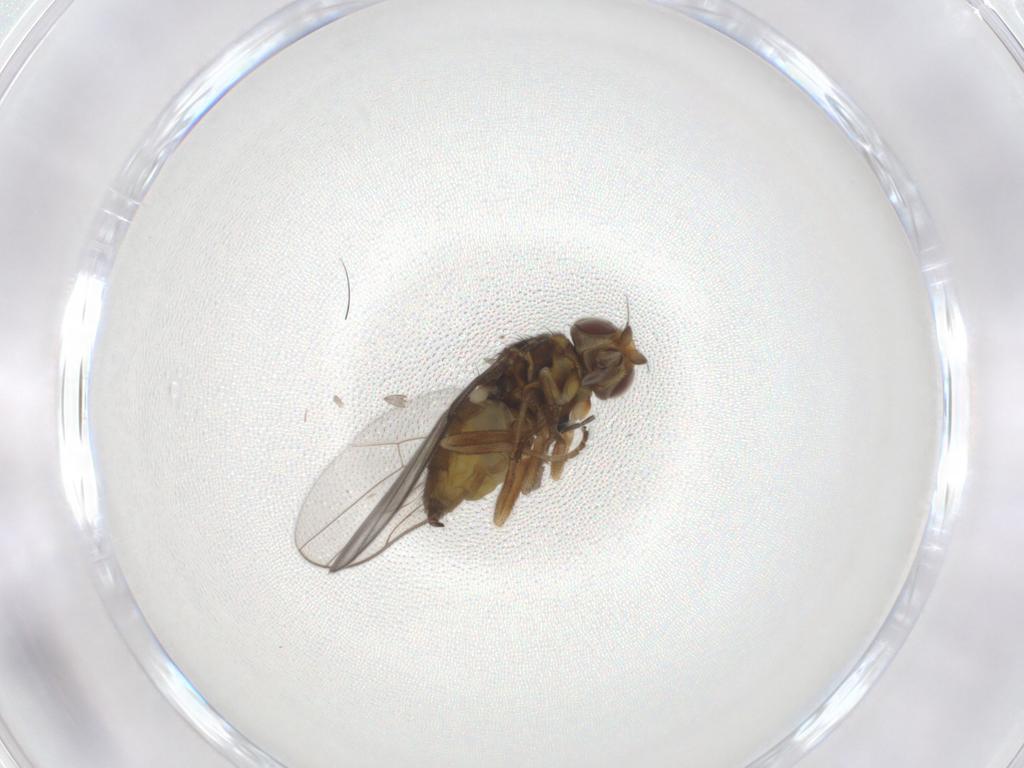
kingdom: Animalia
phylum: Arthropoda
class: Insecta
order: Diptera
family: Chloropidae
